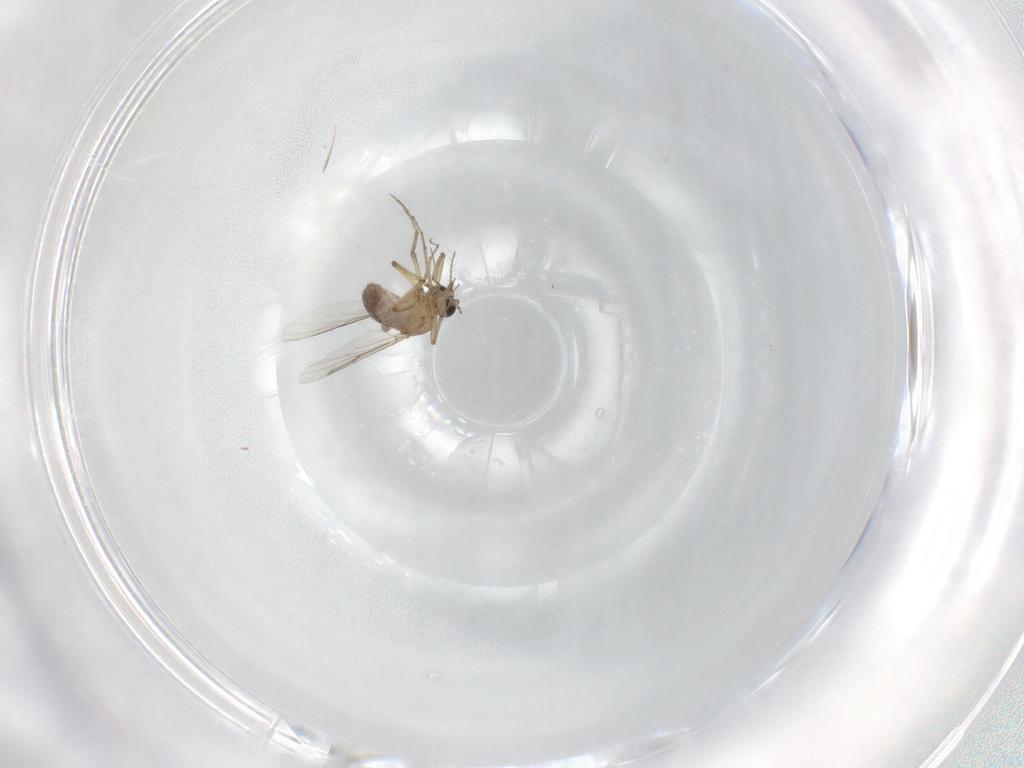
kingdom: Animalia
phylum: Arthropoda
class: Insecta
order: Diptera
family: Ceratopogonidae
